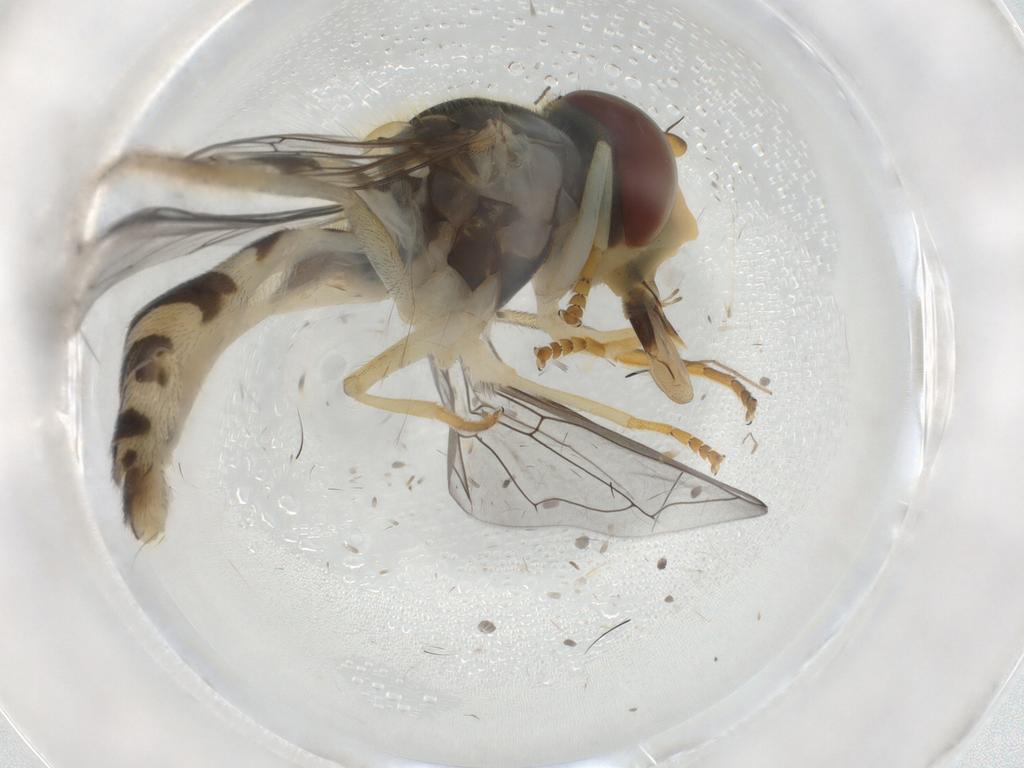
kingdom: Animalia
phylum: Arthropoda
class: Insecta
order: Diptera
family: Syrphidae
